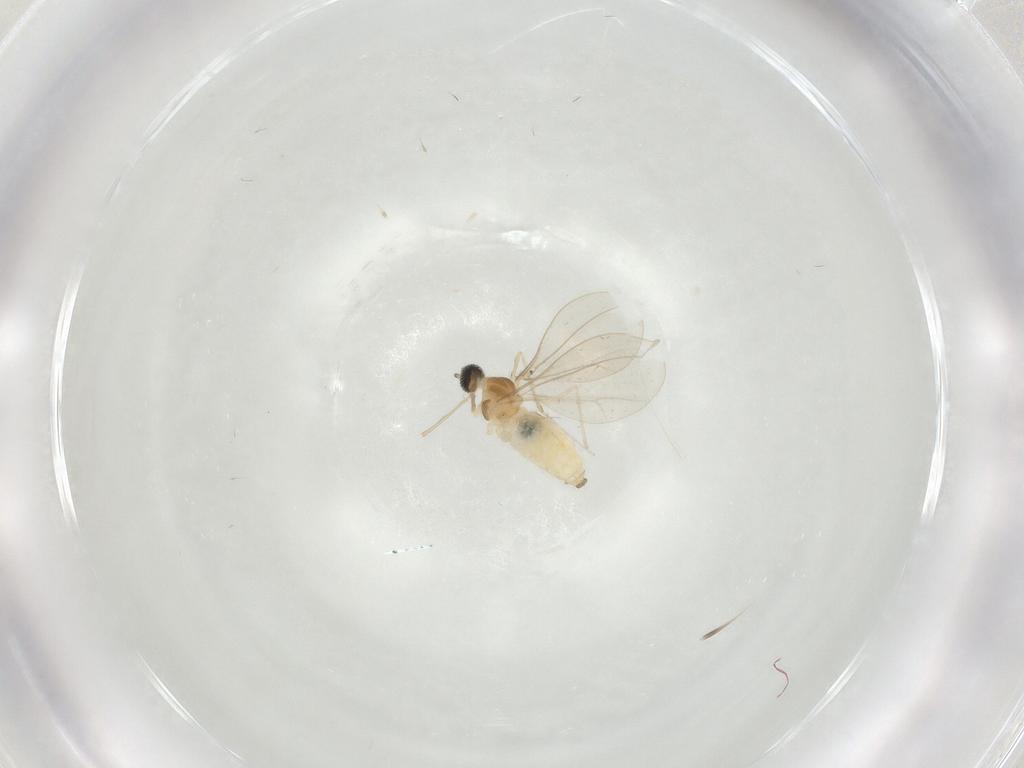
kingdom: Animalia
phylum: Arthropoda
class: Insecta
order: Diptera
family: Cecidomyiidae
